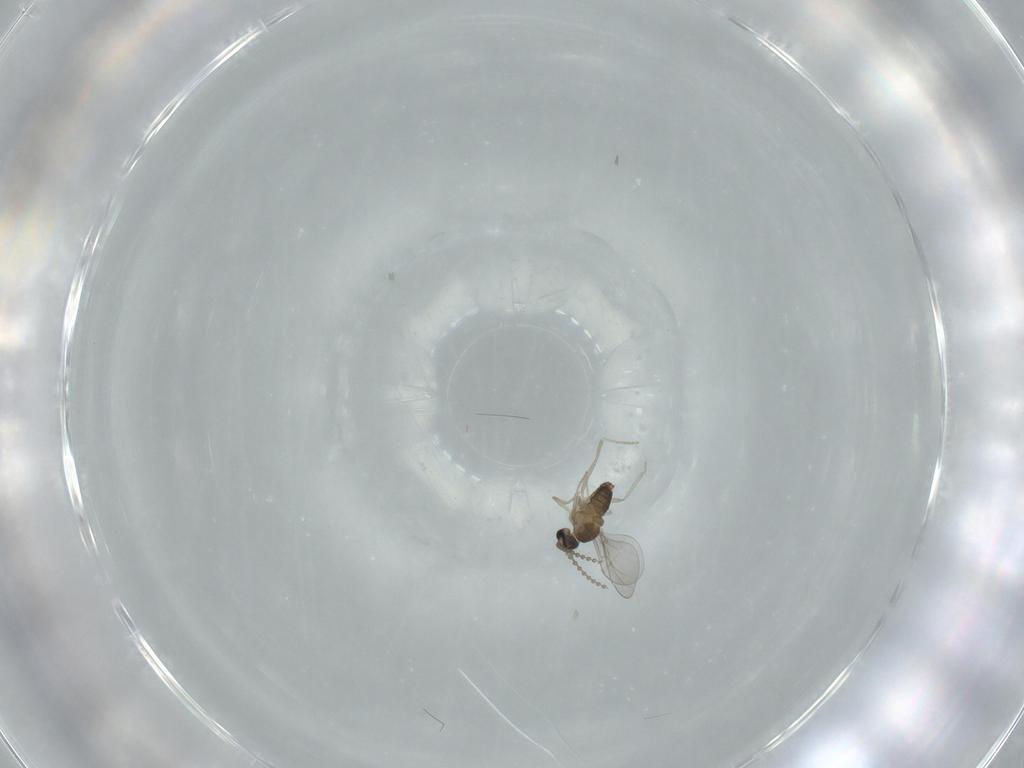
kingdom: Animalia
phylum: Arthropoda
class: Insecta
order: Diptera
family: Cecidomyiidae
